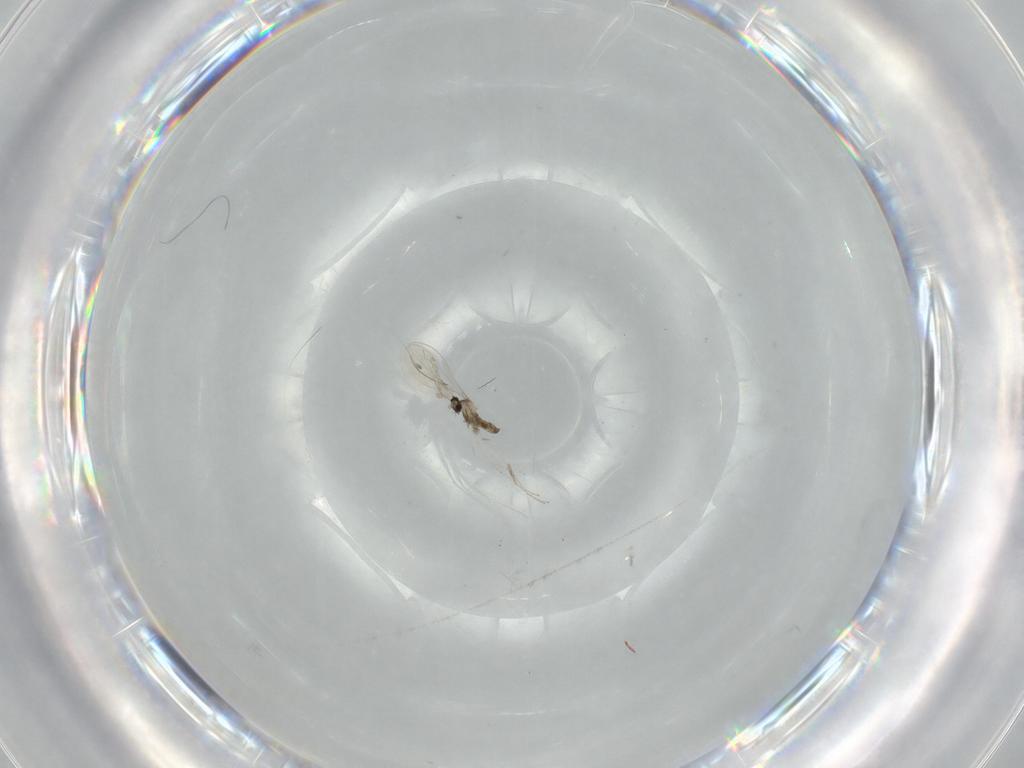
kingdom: Animalia
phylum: Arthropoda
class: Insecta
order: Diptera
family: Cecidomyiidae
